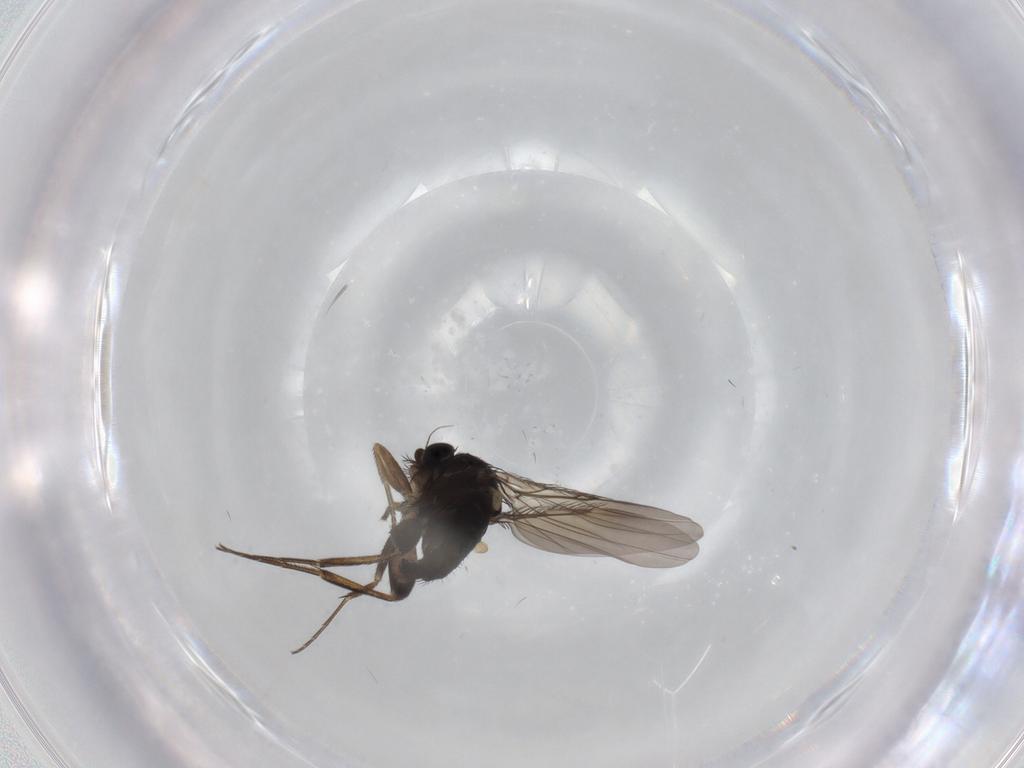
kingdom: Animalia
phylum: Arthropoda
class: Insecta
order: Diptera
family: Phoridae
